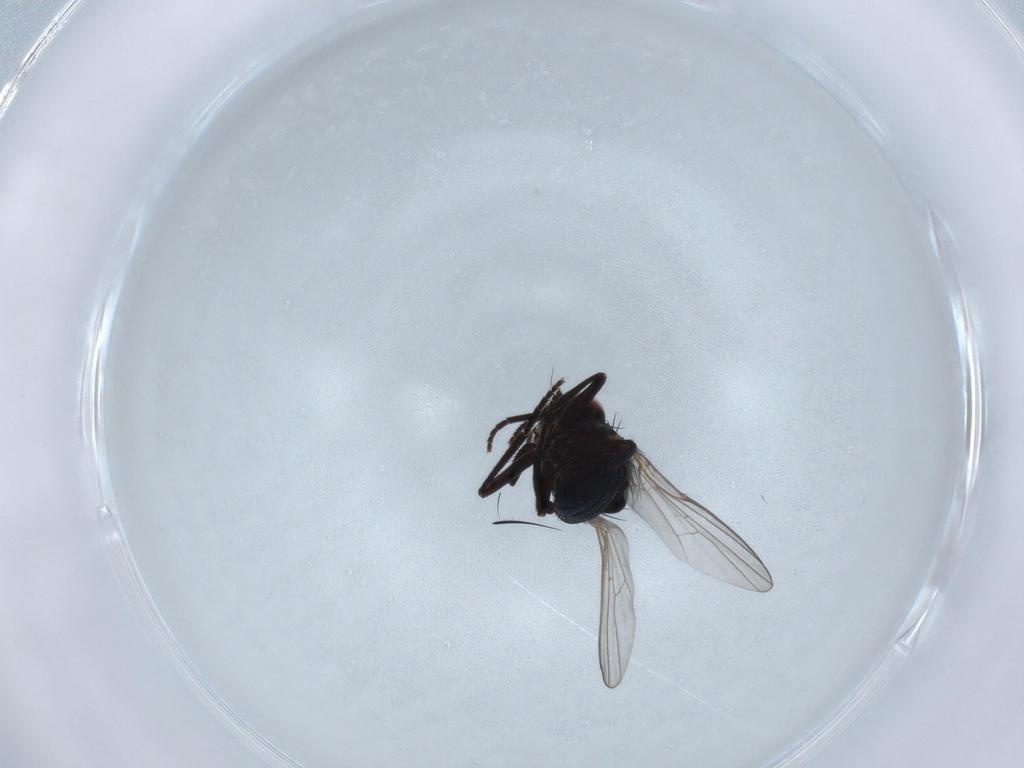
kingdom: Animalia
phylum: Arthropoda
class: Insecta
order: Diptera
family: Agromyzidae
